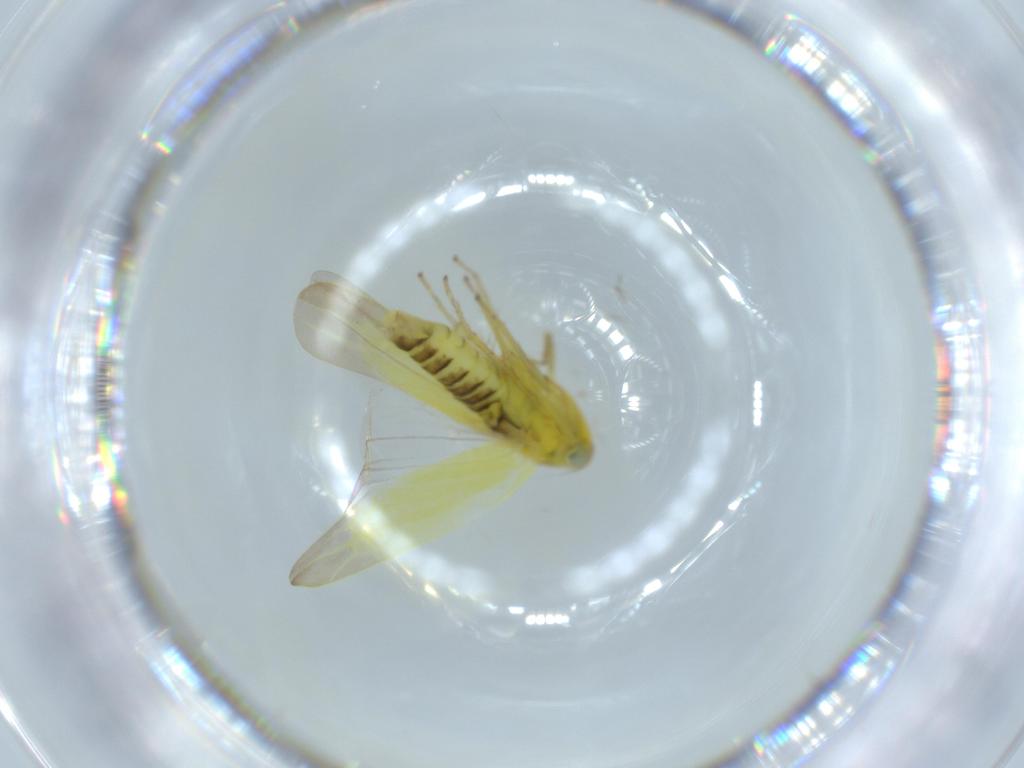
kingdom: Animalia
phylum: Arthropoda
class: Insecta
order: Hemiptera
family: Cicadellidae
